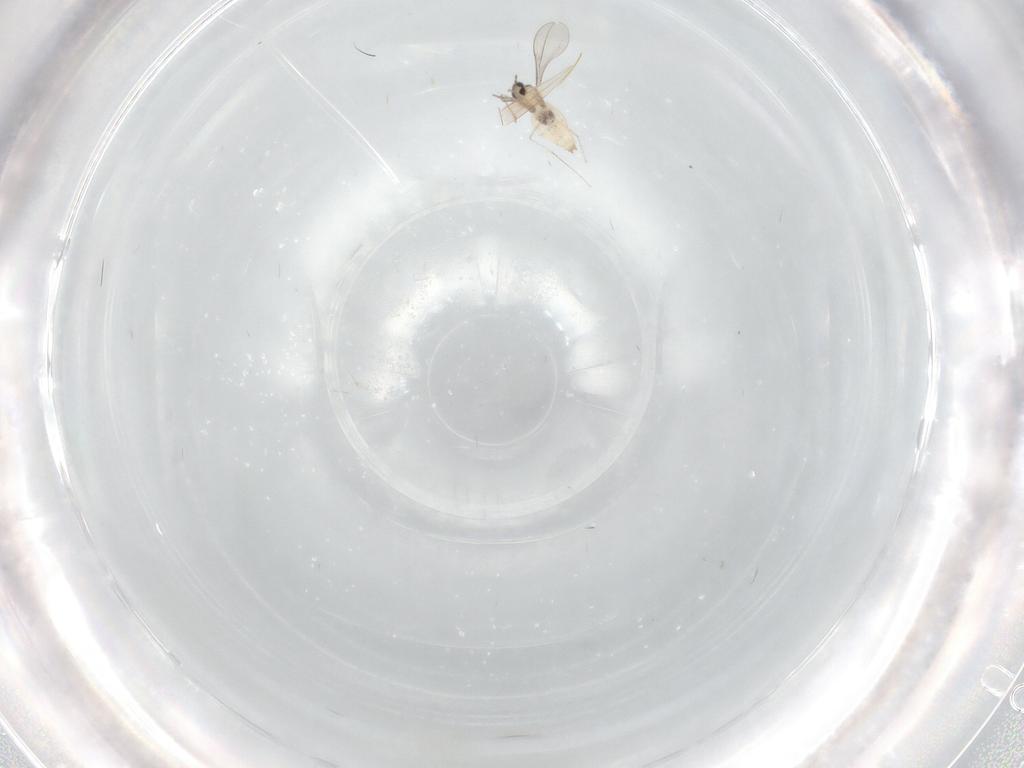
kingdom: Animalia
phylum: Arthropoda
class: Insecta
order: Diptera
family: Cecidomyiidae
